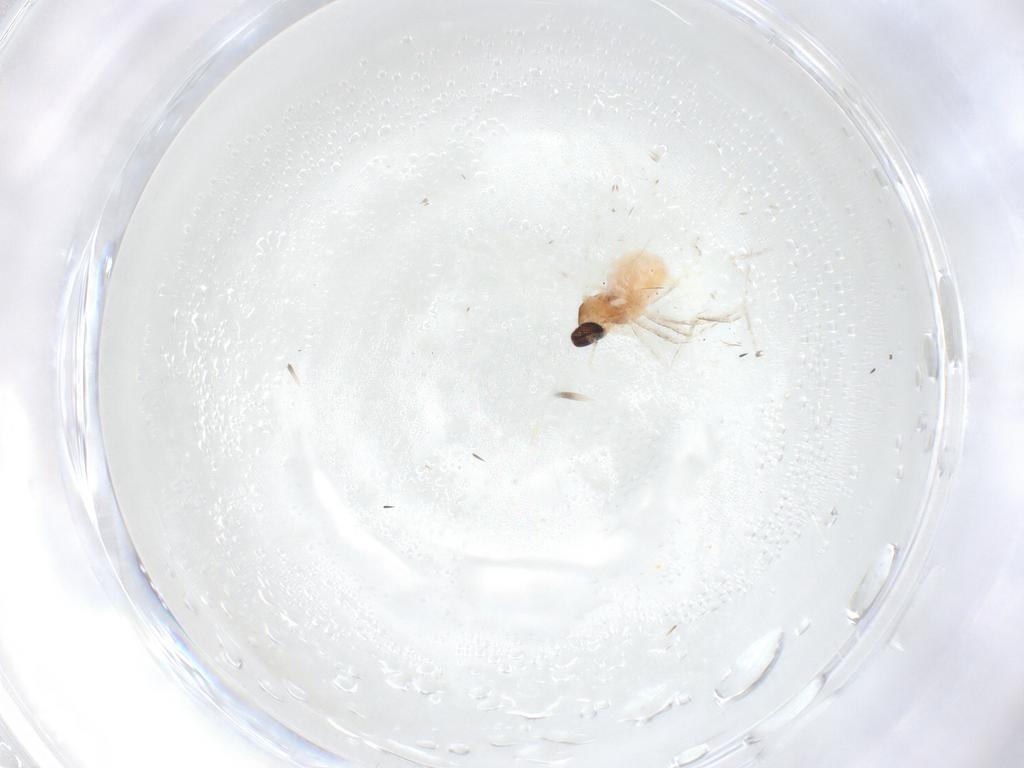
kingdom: Animalia
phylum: Arthropoda
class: Insecta
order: Diptera
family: Cecidomyiidae
